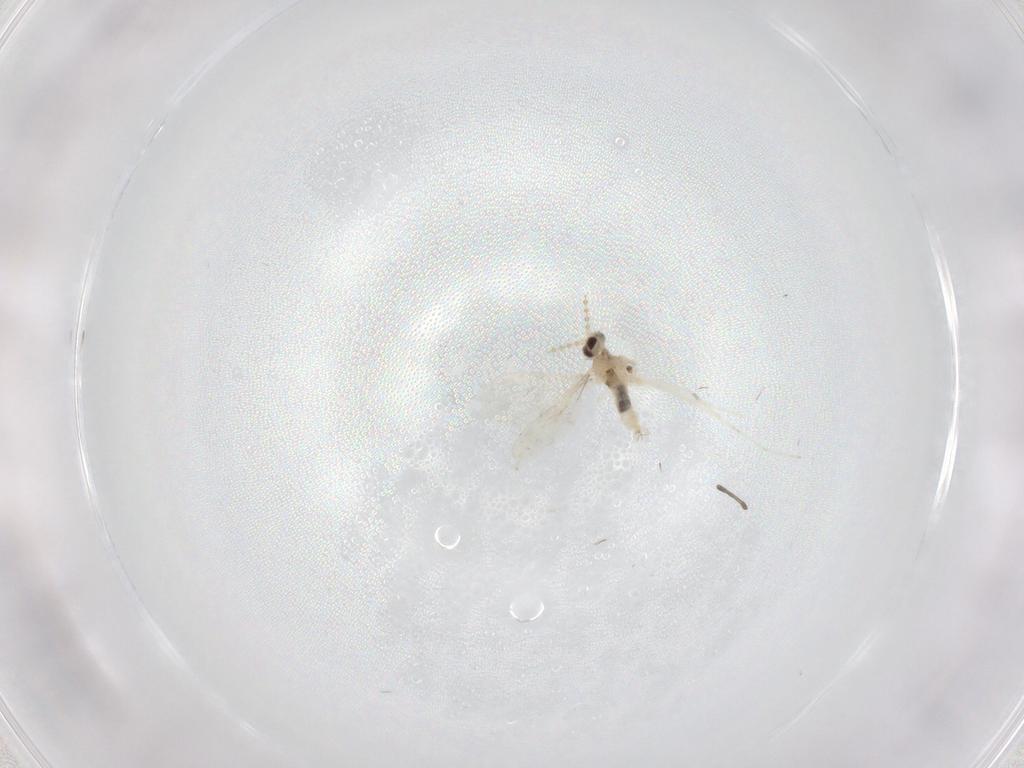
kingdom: Animalia
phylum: Arthropoda
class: Insecta
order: Diptera
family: Cecidomyiidae
